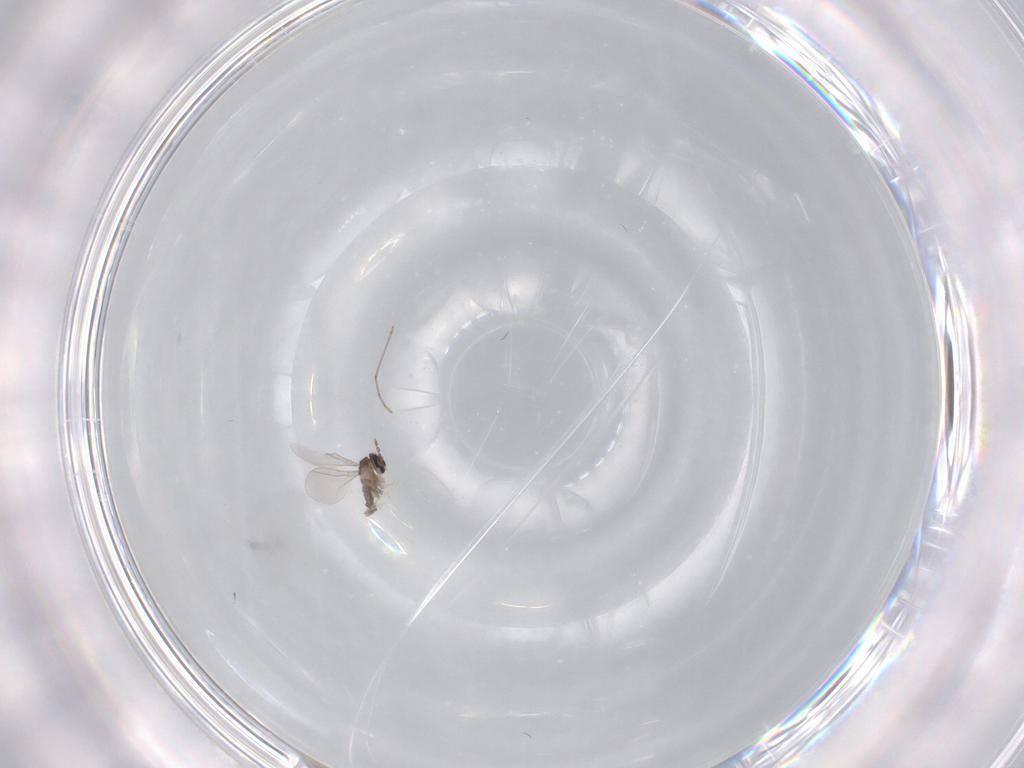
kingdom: Animalia
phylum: Arthropoda
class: Insecta
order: Diptera
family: Cecidomyiidae
